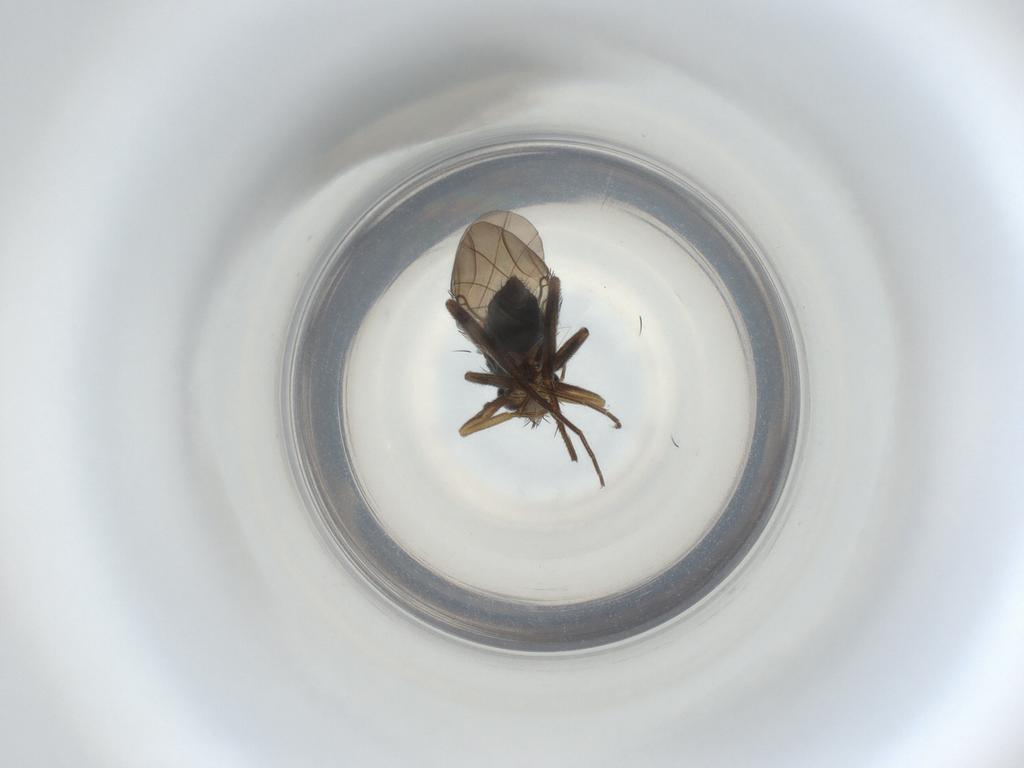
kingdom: Animalia
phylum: Arthropoda
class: Insecta
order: Diptera
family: Phoridae
